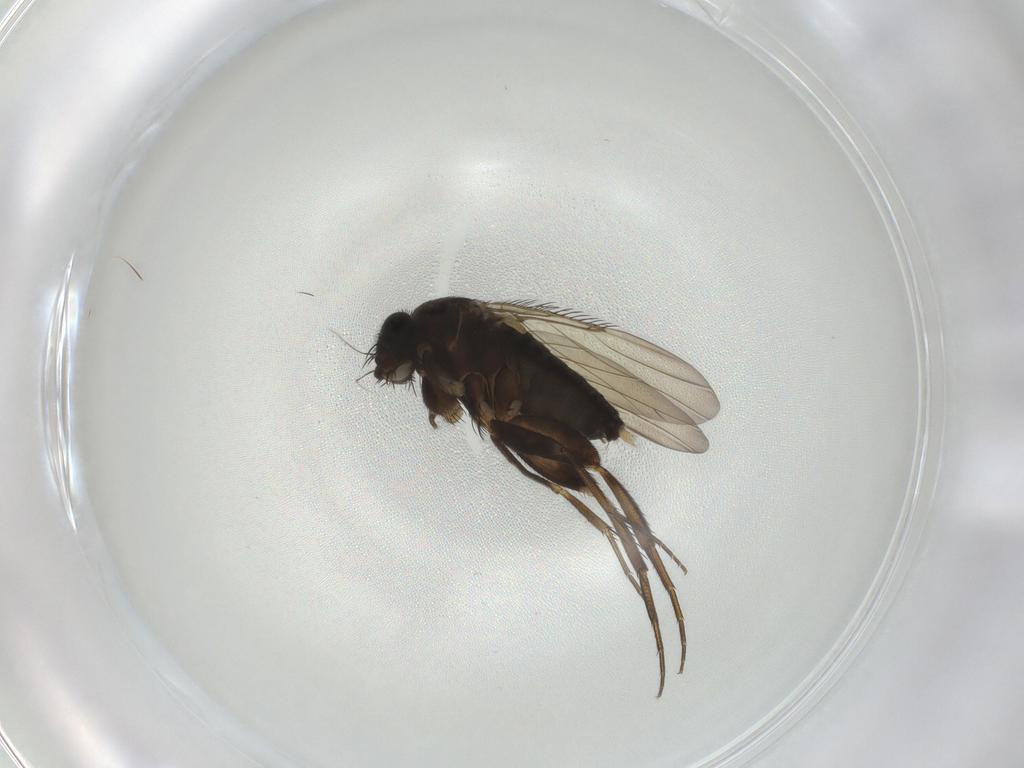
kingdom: Animalia
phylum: Arthropoda
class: Insecta
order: Diptera
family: Phoridae
